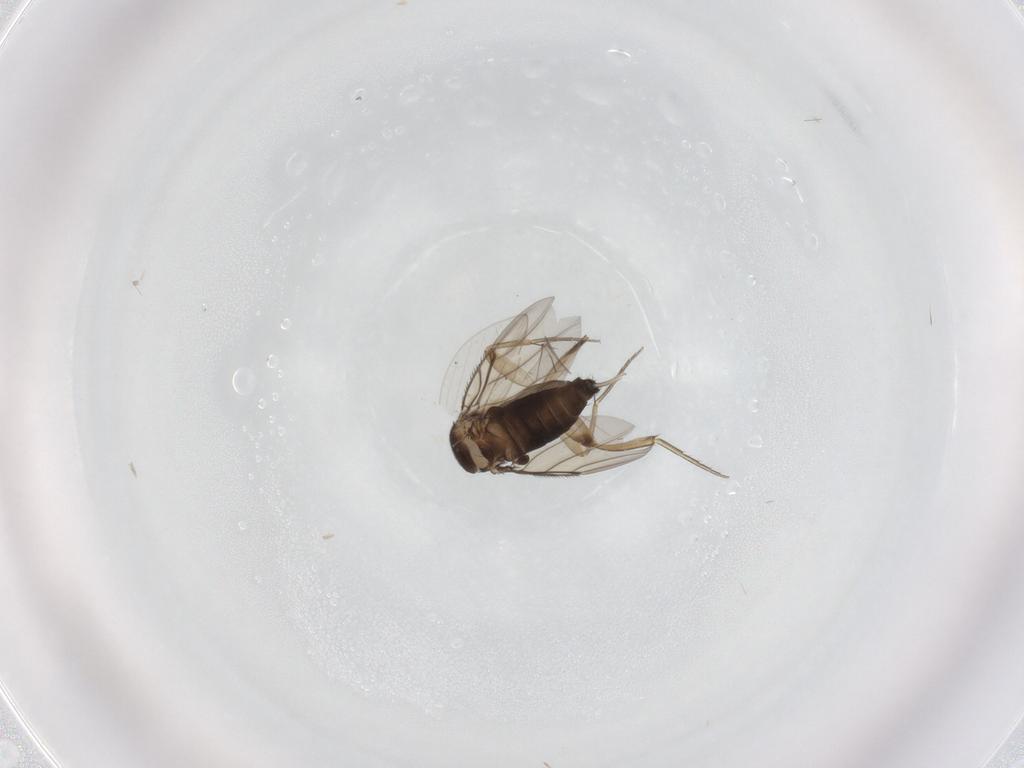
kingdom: Animalia
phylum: Arthropoda
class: Insecta
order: Diptera
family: Phoridae
